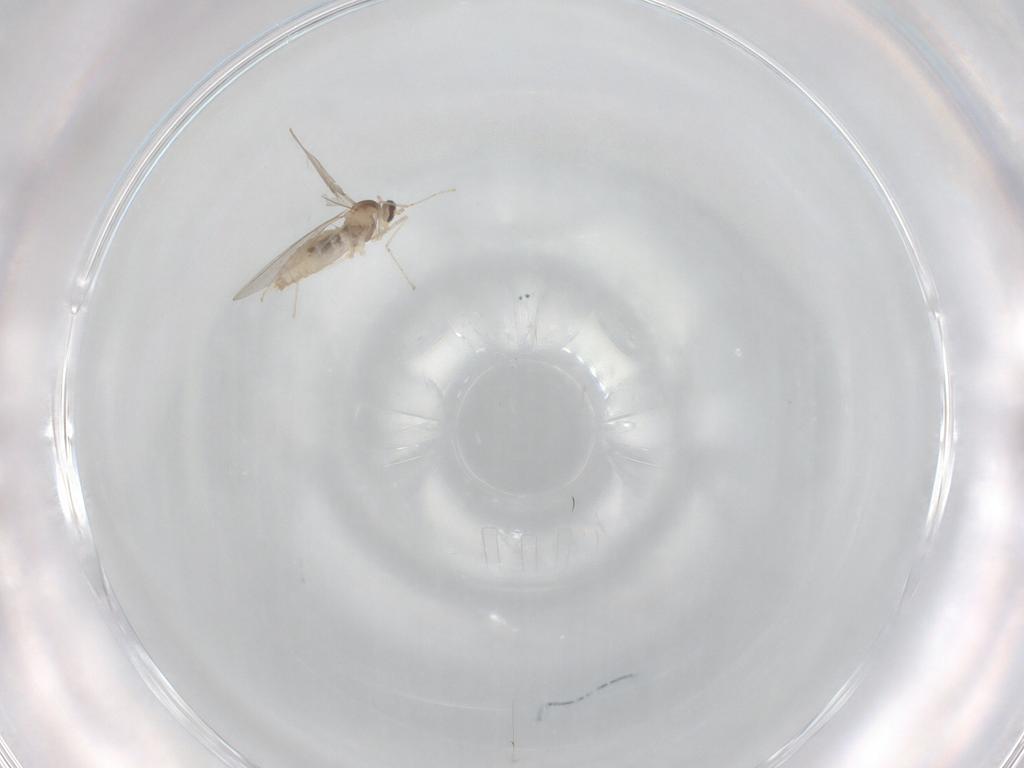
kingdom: Animalia
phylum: Arthropoda
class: Insecta
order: Diptera
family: Sciaridae
